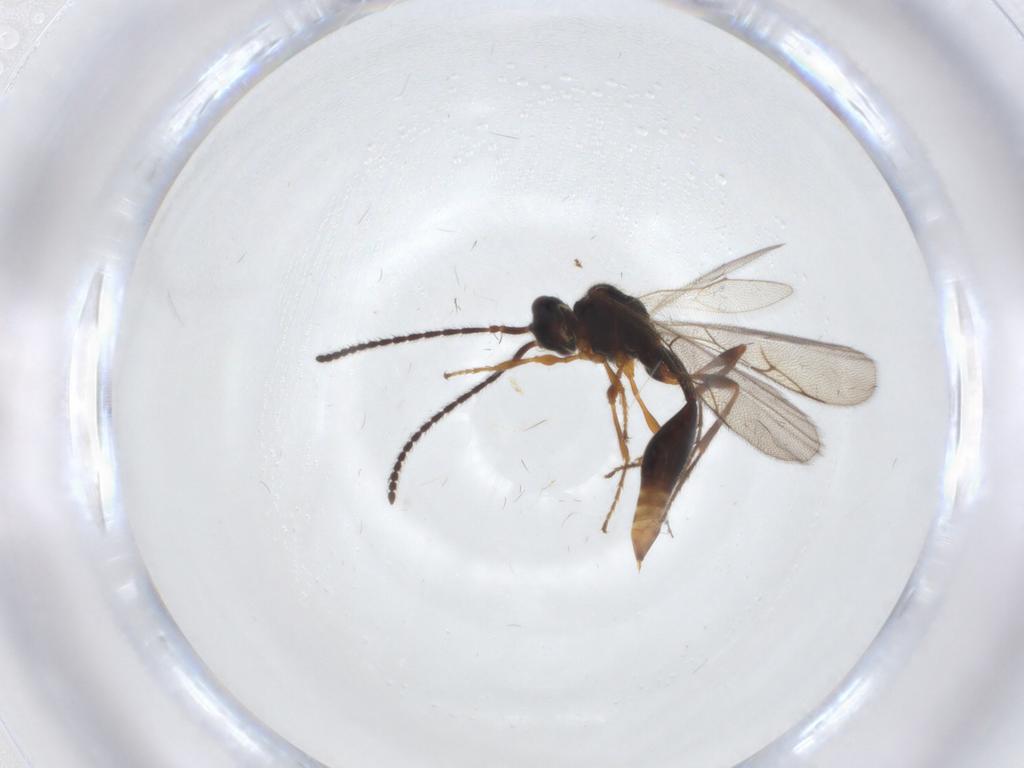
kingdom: Animalia
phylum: Arthropoda
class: Insecta
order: Hymenoptera
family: Diapriidae
